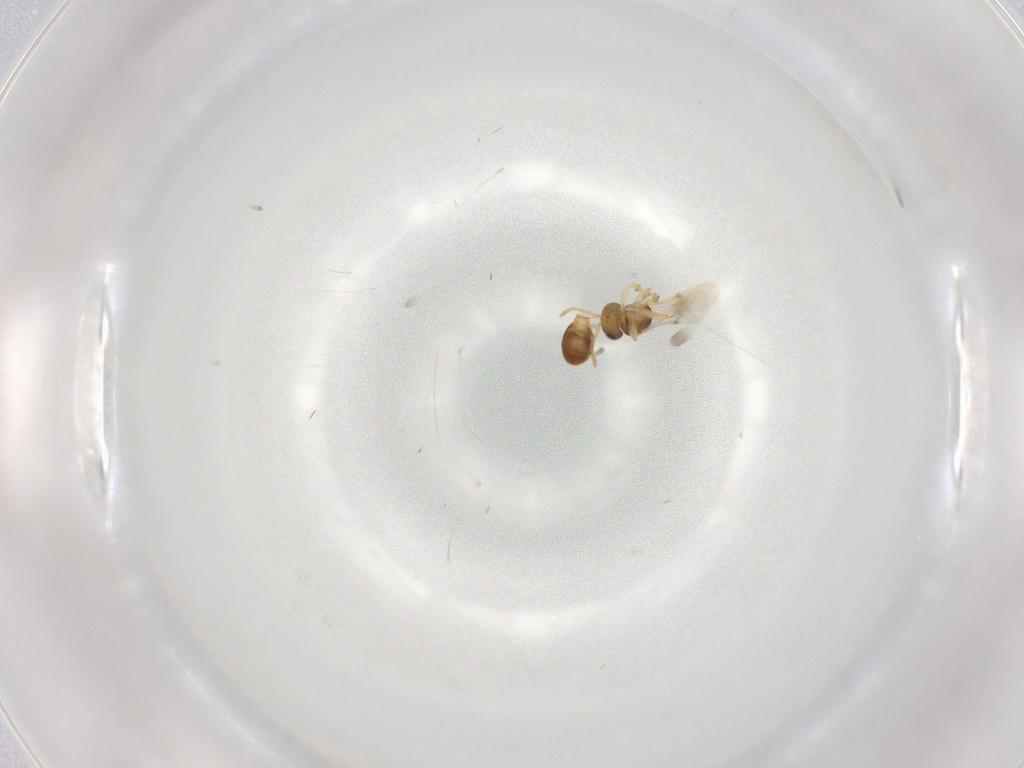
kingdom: Animalia
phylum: Arthropoda
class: Insecta
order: Hymenoptera
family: Scelionidae
